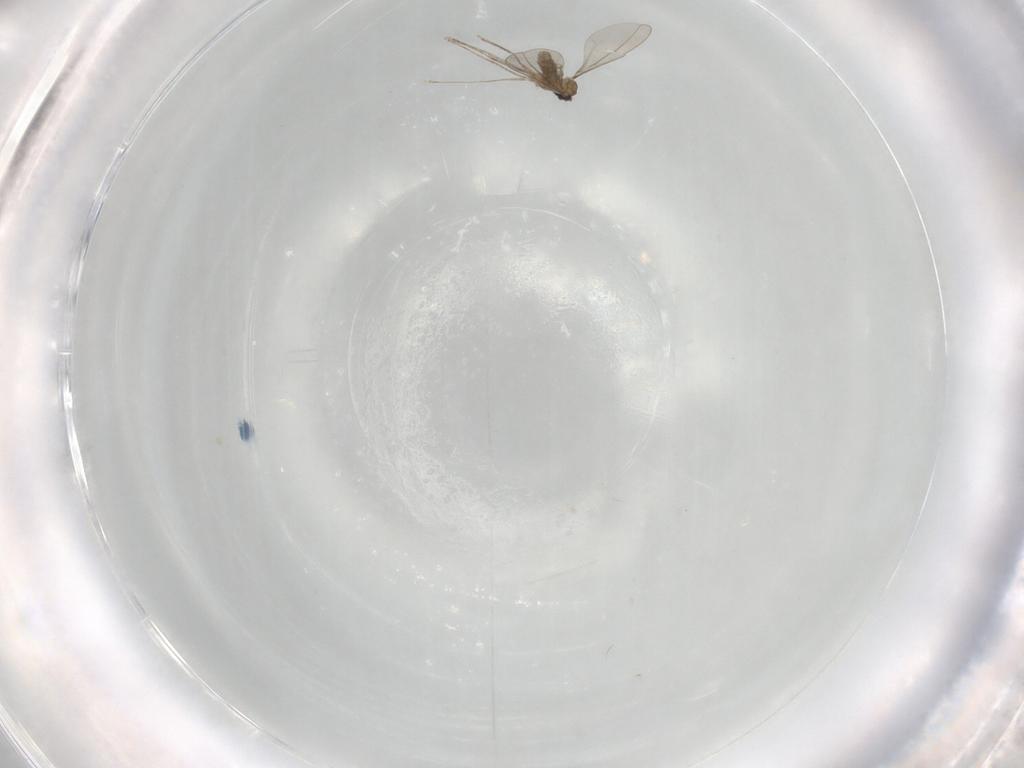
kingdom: Animalia
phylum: Arthropoda
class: Insecta
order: Diptera
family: Cecidomyiidae
